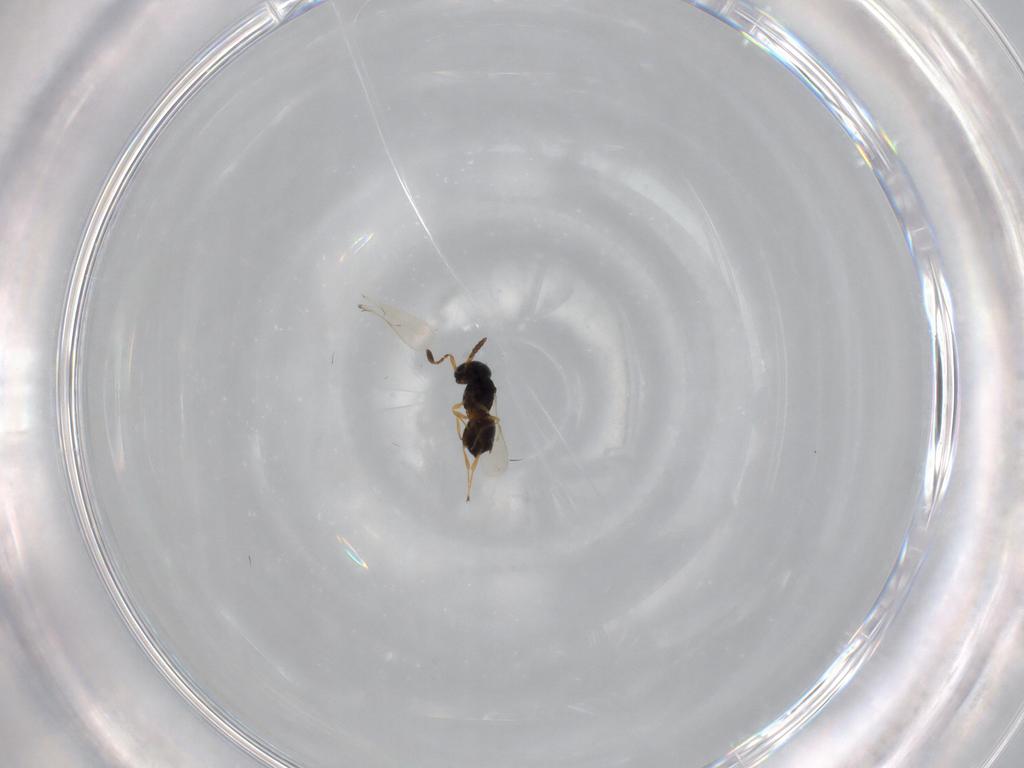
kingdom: Animalia
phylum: Arthropoda
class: Insecta
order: Hymenoptera
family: Scelionidae
